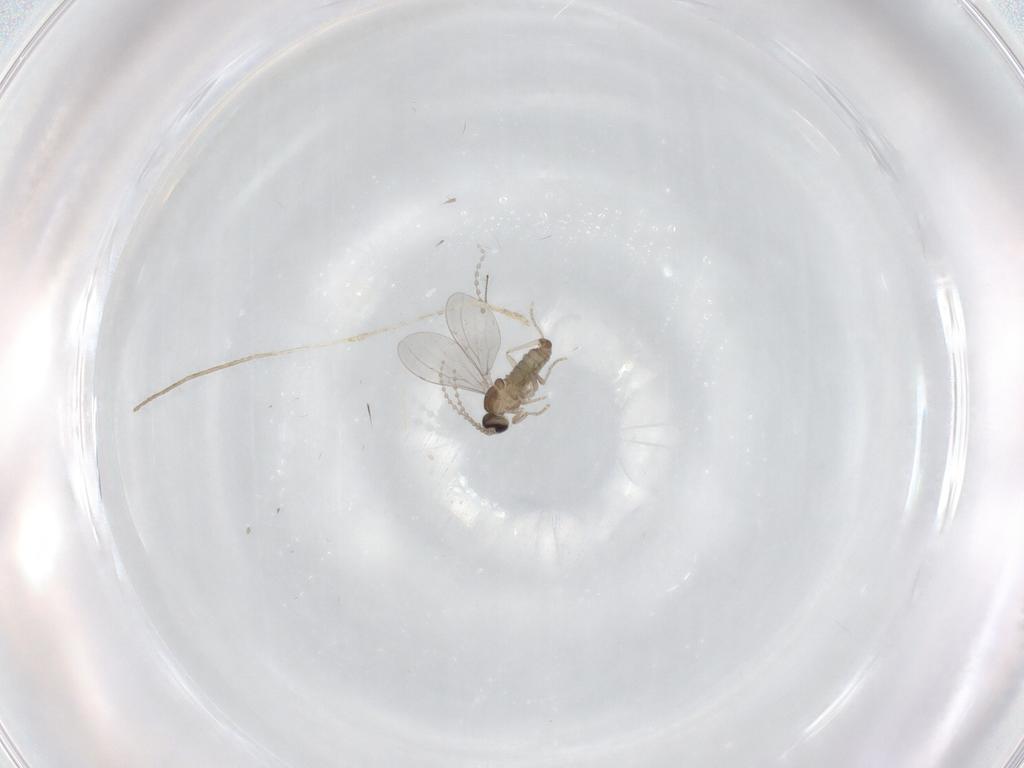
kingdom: Animalia
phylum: Arthropoda
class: Insecta
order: Diptera
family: Cecidomyiidae
